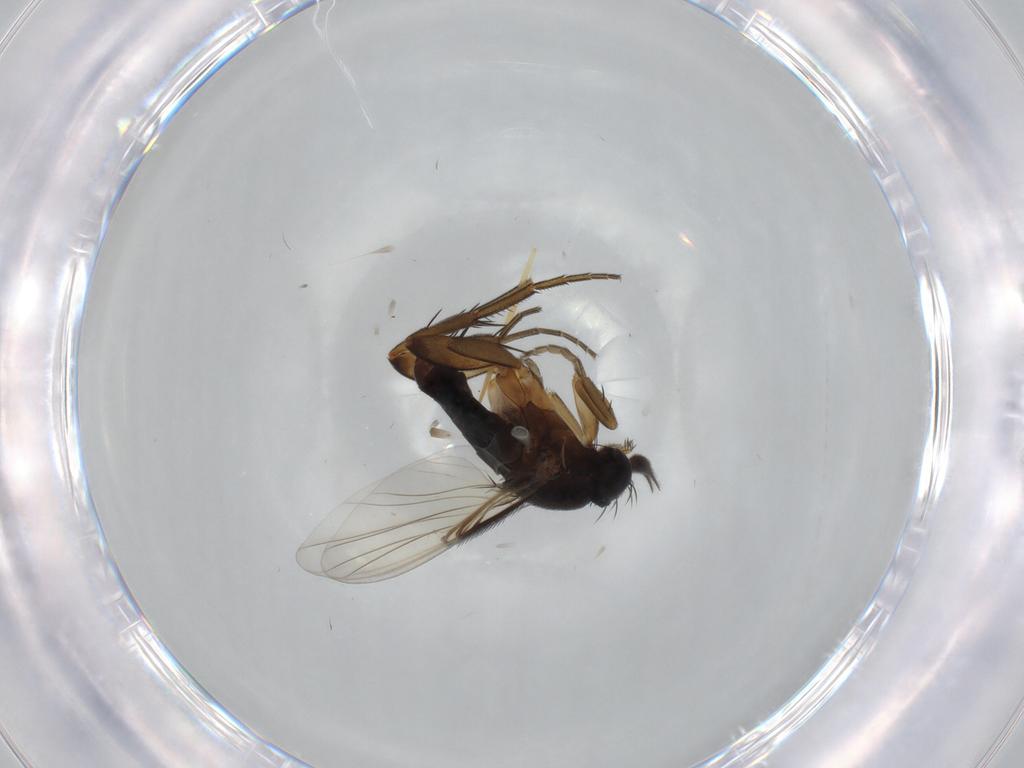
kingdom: Animalia
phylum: Arthropoda
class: Insecta
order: Diptera
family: Phoridae
